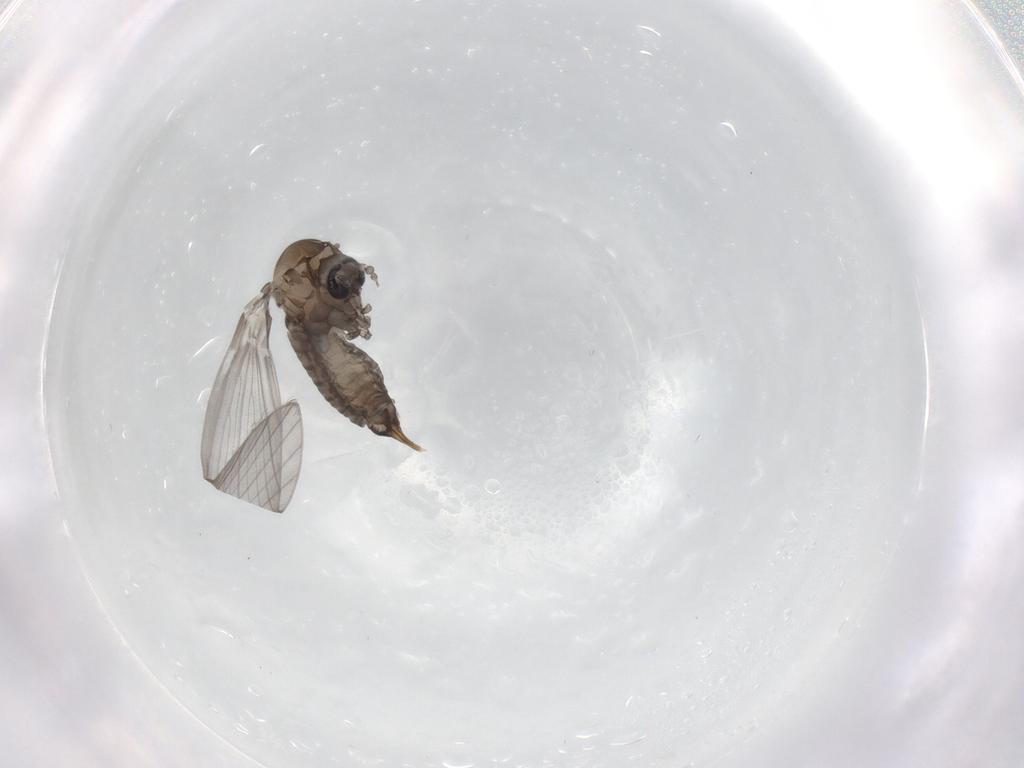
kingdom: Animalia
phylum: Arthropoda
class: Insecta
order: Diptera
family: Psychodidae
